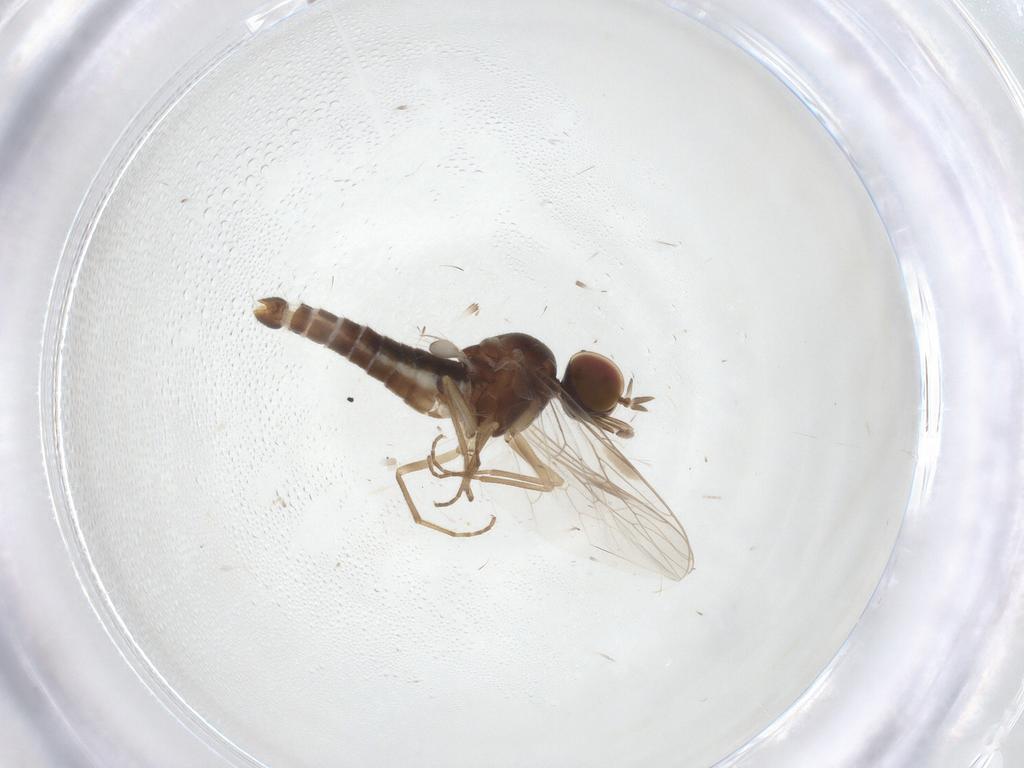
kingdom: Animalia
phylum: Arthropoda
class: Insecta
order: Diptera
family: Scenopinidae
